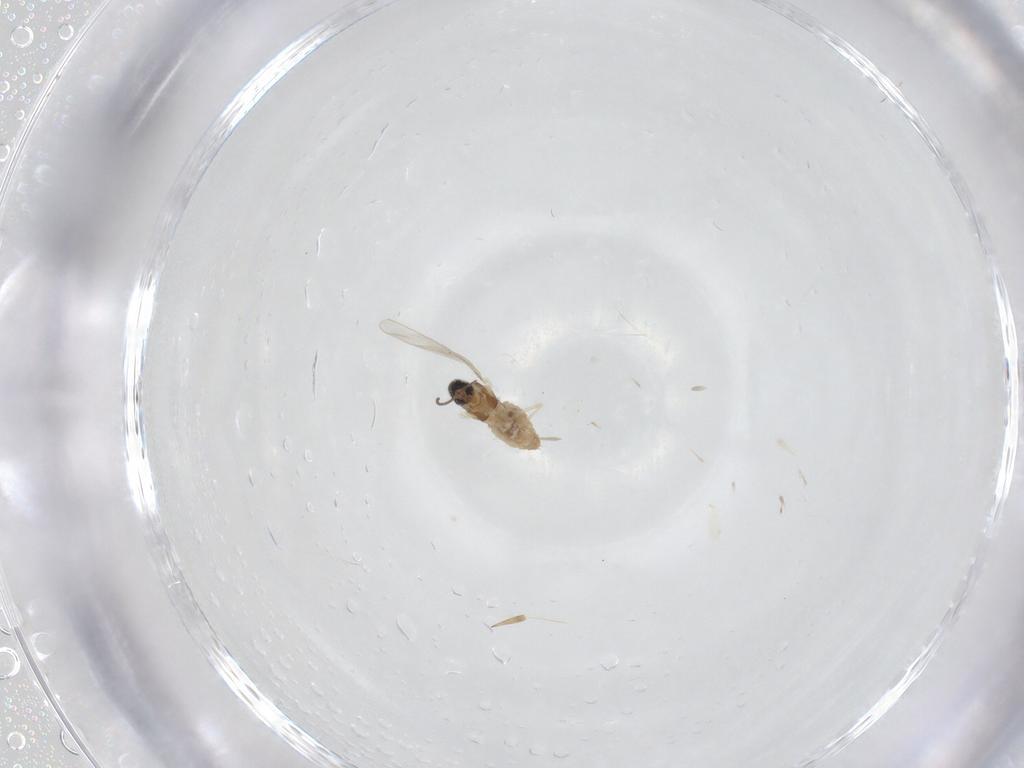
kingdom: Animalia
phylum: Arthropoda
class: Insecta
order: Diptera
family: Cecidomyiidae
